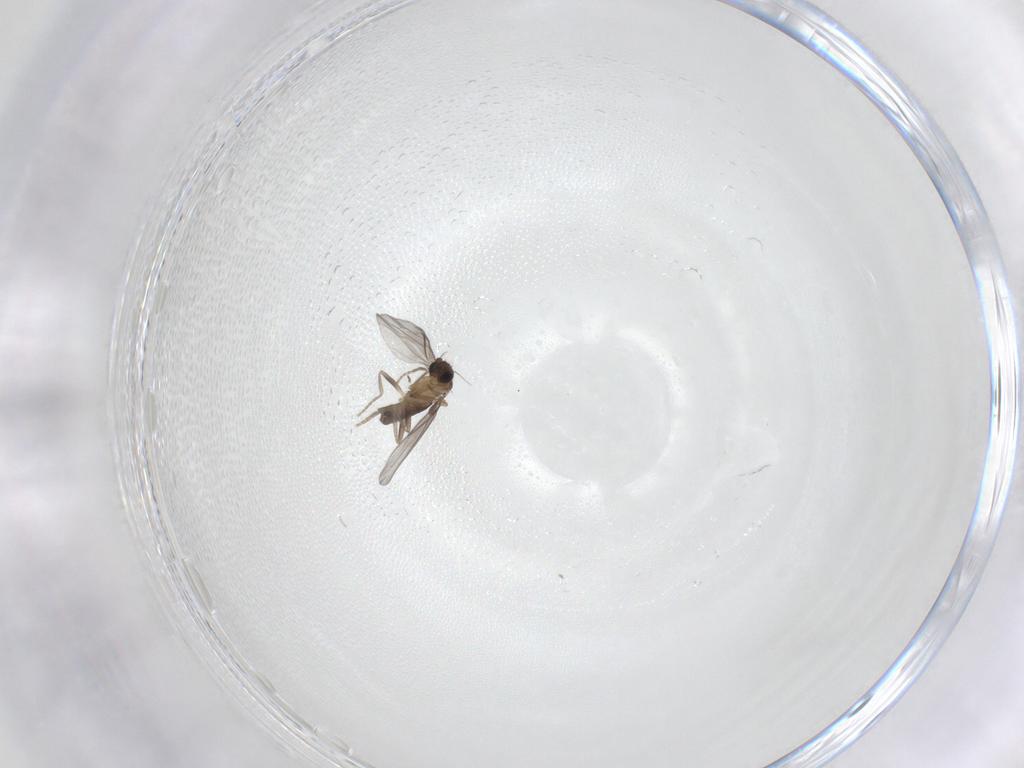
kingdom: Animalia
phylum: Arthropoda
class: Insecta
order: Diptera
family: Phoridae
